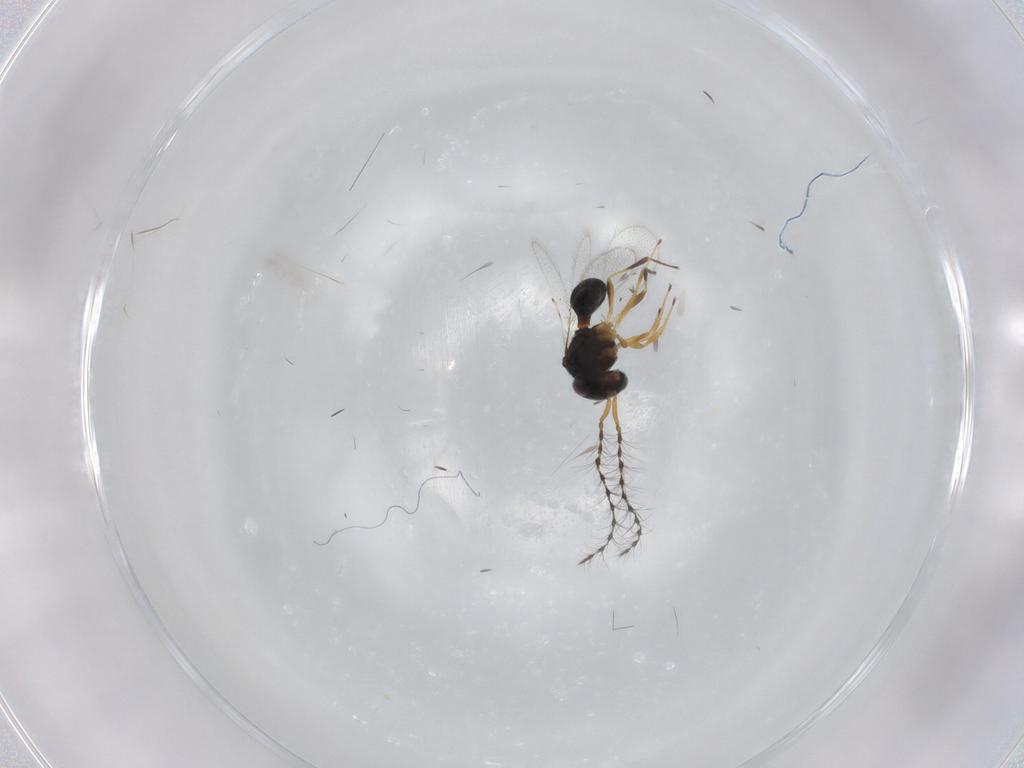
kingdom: Animalia
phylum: Arthropoda
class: Insecta
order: Hymenoptera
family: Scelionidae
